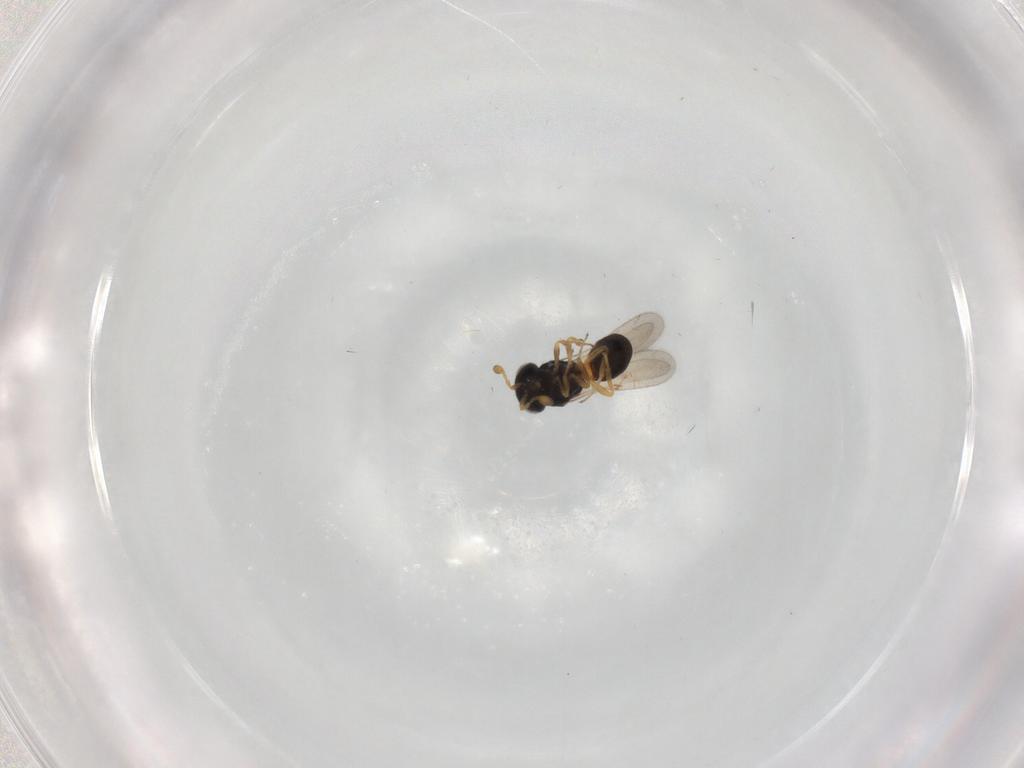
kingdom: Animalia
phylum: Arthropoda
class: Insecta
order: Hymenoptera
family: Scelionidae
